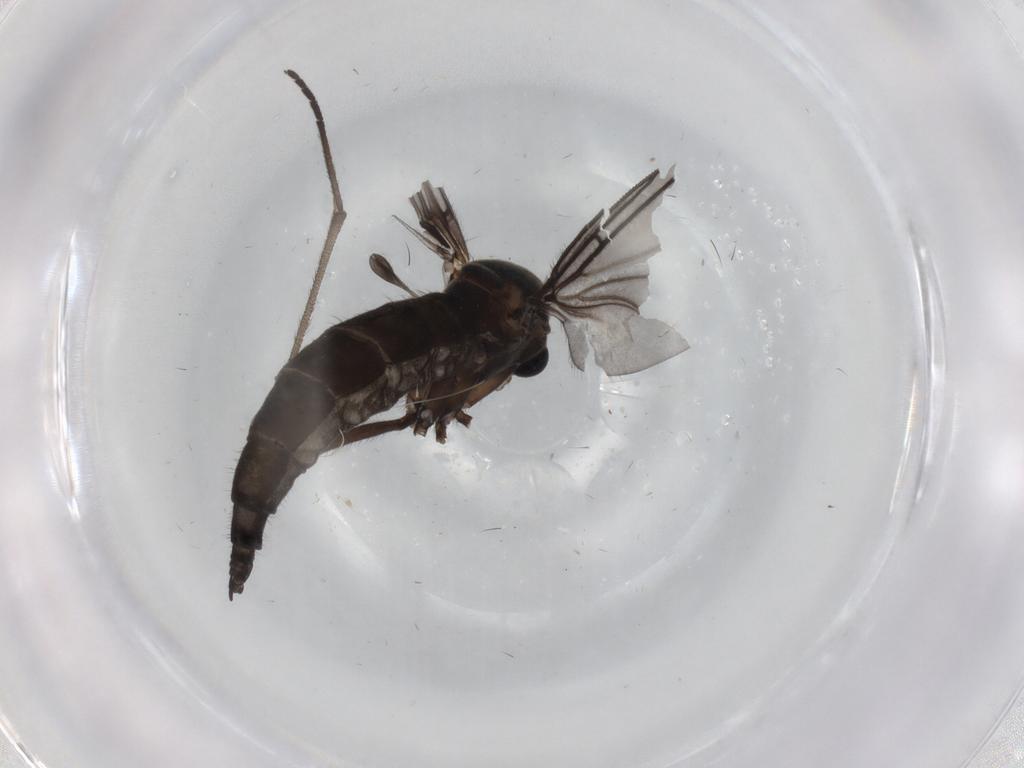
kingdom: Animalia
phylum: Arthropoda
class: Insecta
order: Diptera
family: Sciaridae
